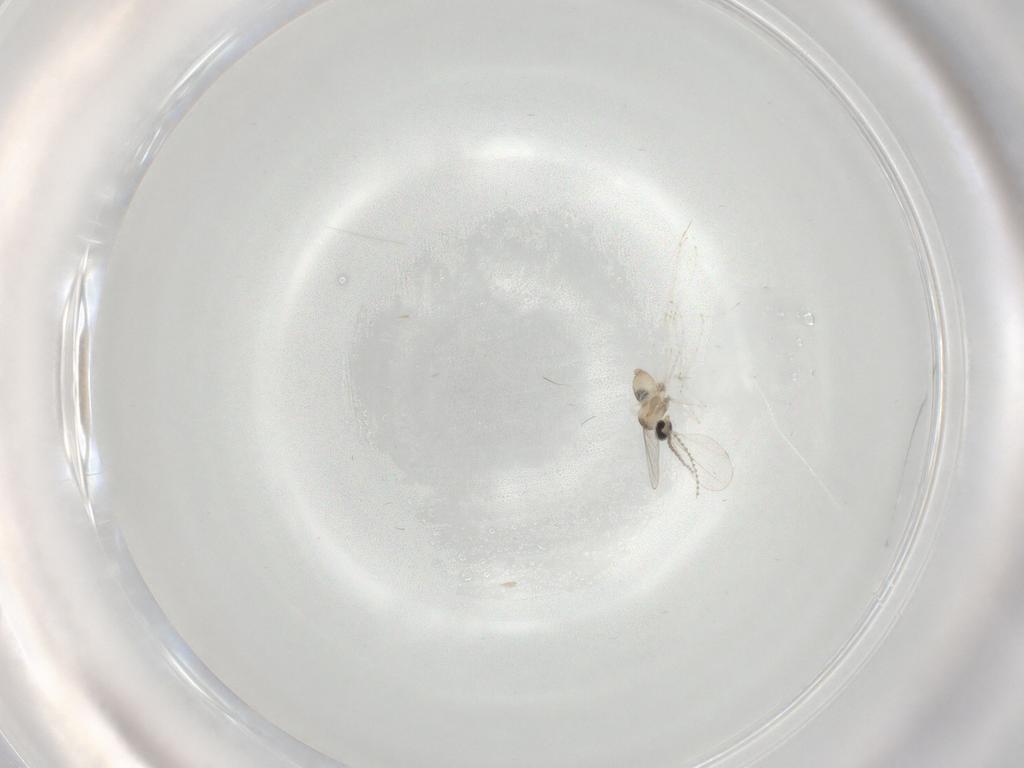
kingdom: Animalia
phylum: Arthropoda
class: Insecta
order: Diptera
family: Cecidomyiidae
